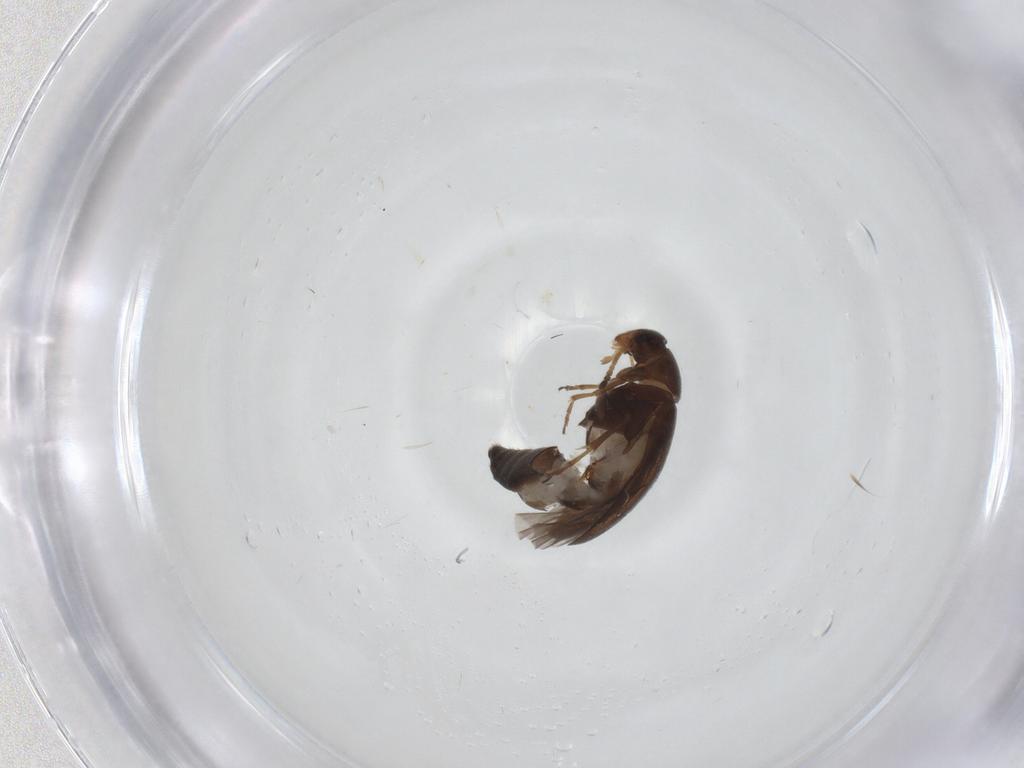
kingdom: Animalia
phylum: Arthropoda
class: Insecta
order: Coleoptera
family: Scraptiidae
